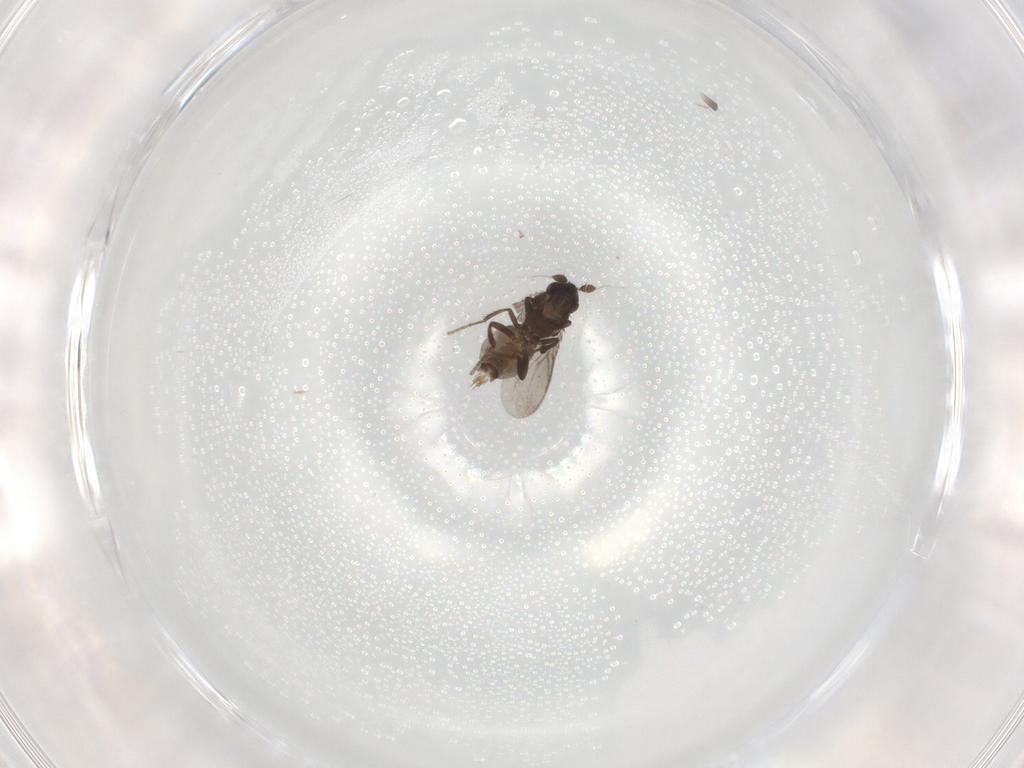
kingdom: Animalia
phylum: Arthropoda
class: Insecta
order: Diptera
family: Sphaeroceridae
